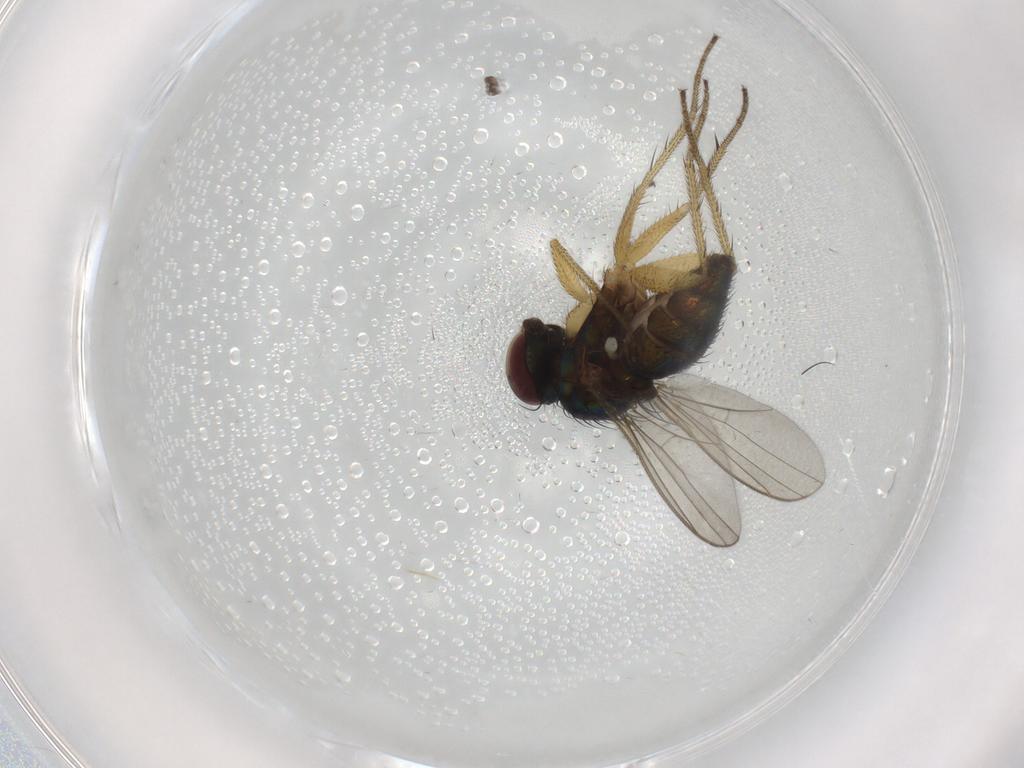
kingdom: Animalia
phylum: Arthropoda
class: Insecta
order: Diptera
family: Dolichopodidae
